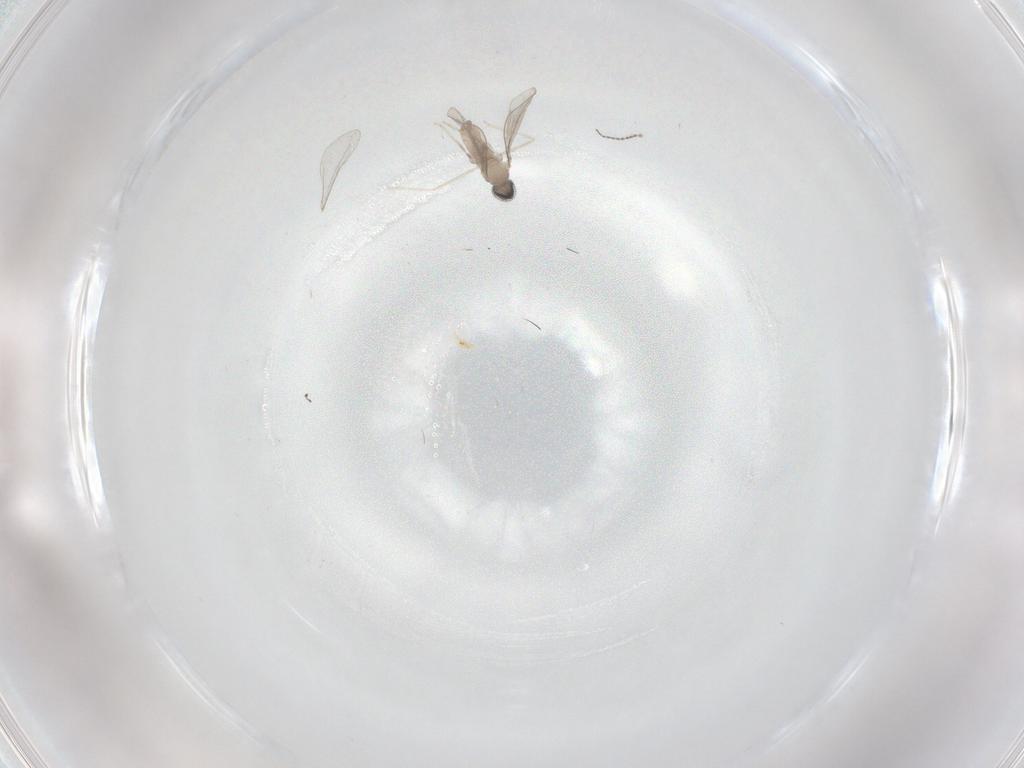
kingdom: Animalia
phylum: Arthropoda
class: Insecta
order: Diptera
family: Cecidomyiidae
